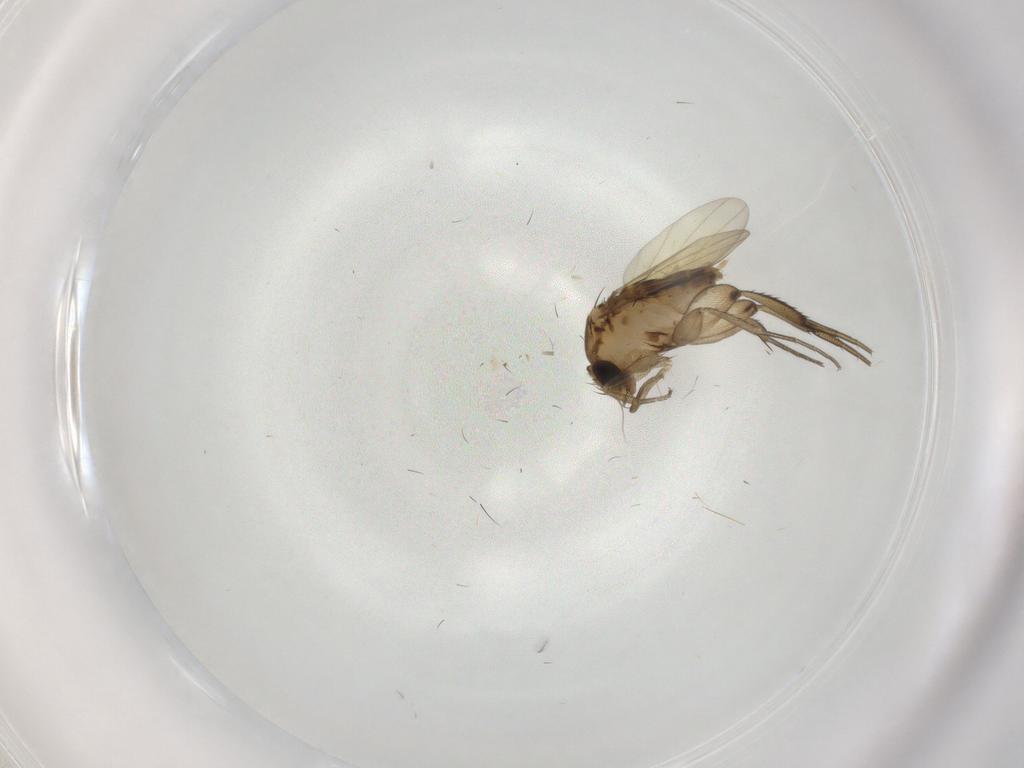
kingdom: Animalia
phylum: Arthropoda
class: Insecta
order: Diptera
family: Phoridae
